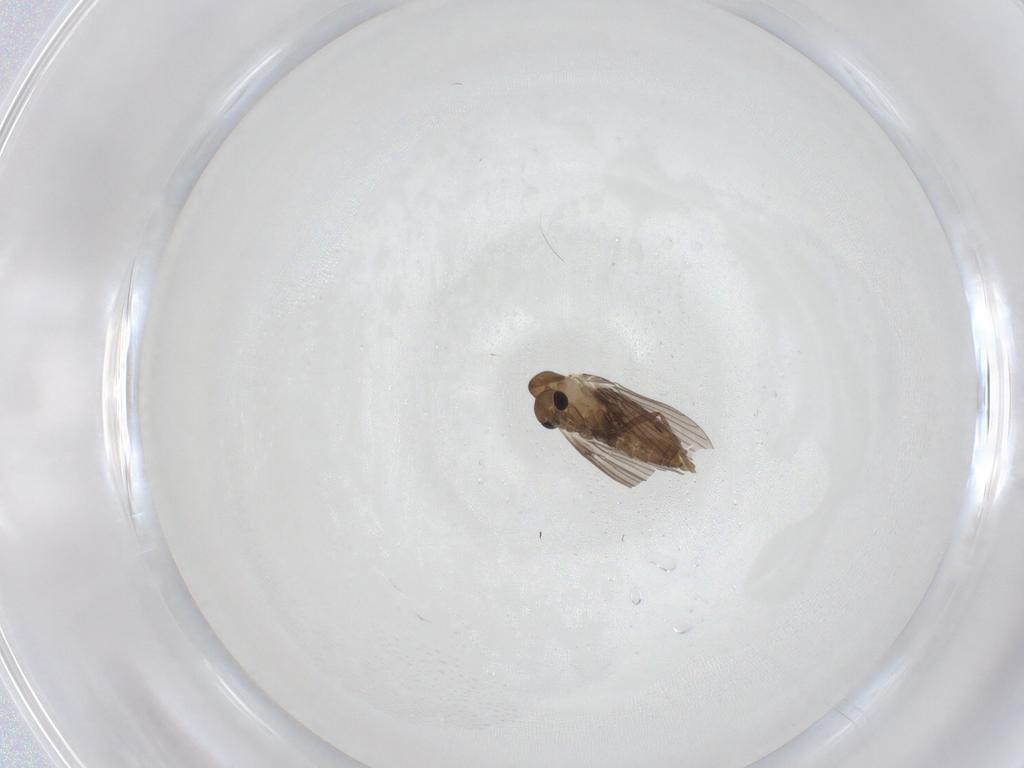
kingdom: Animalia
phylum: Arthropoda
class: Insecta
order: Diptera
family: Psychodidae
